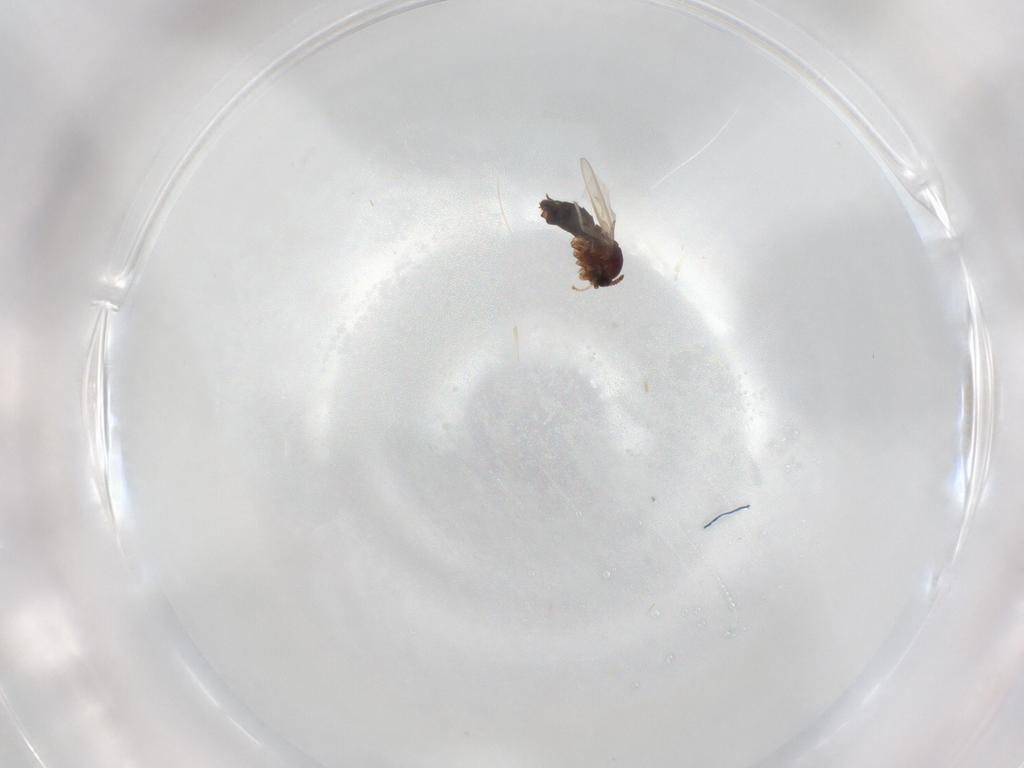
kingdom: Animalia
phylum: Arthropoda
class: Insecta
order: Diptera
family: Scatopsidae
